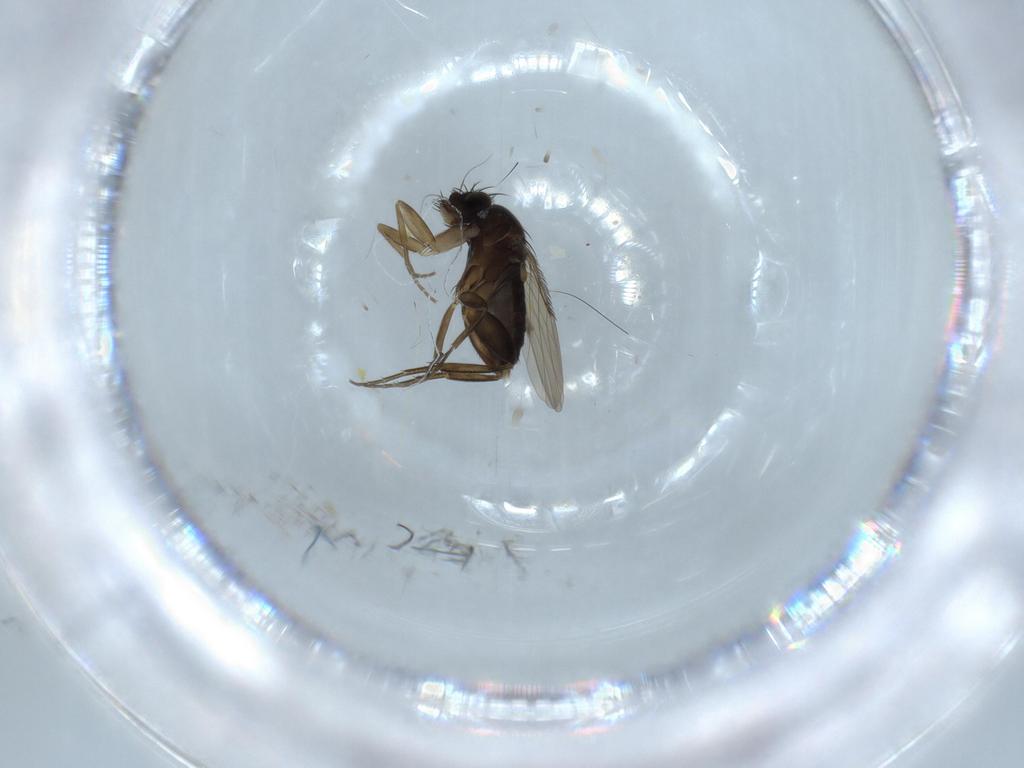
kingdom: Animalia
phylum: Arthropoda
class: Insecta
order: Diptera
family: Phoridae
